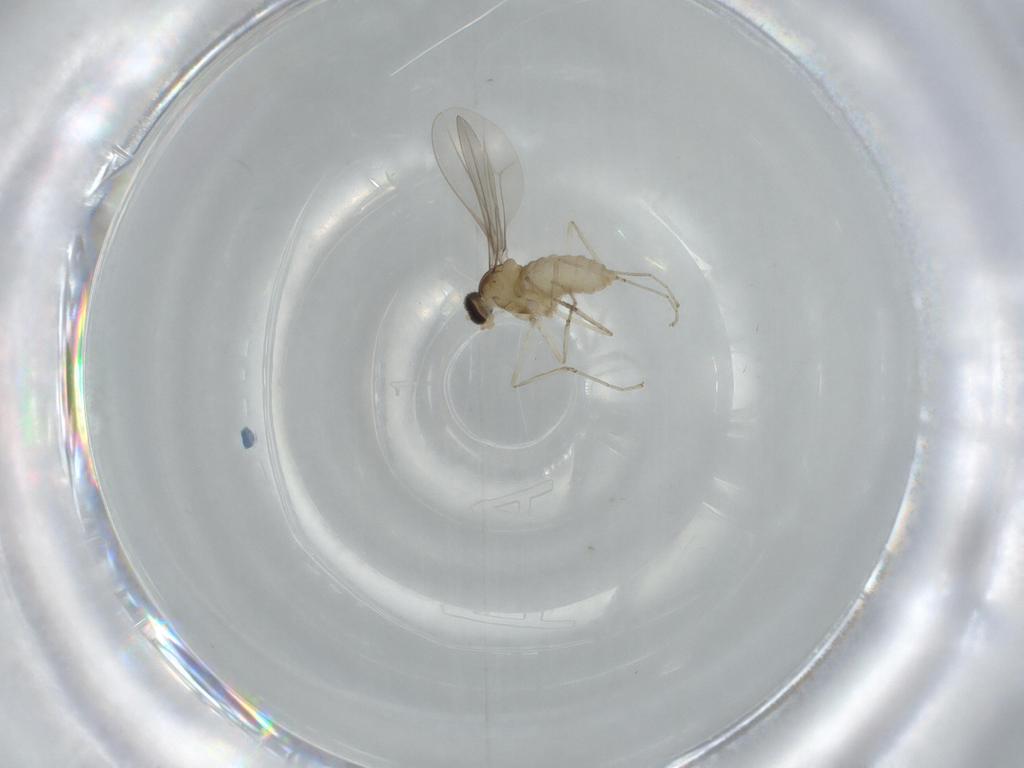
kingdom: Animalia
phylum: Arthropoda
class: Insecta
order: Diptera
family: Cecidomyiidae
